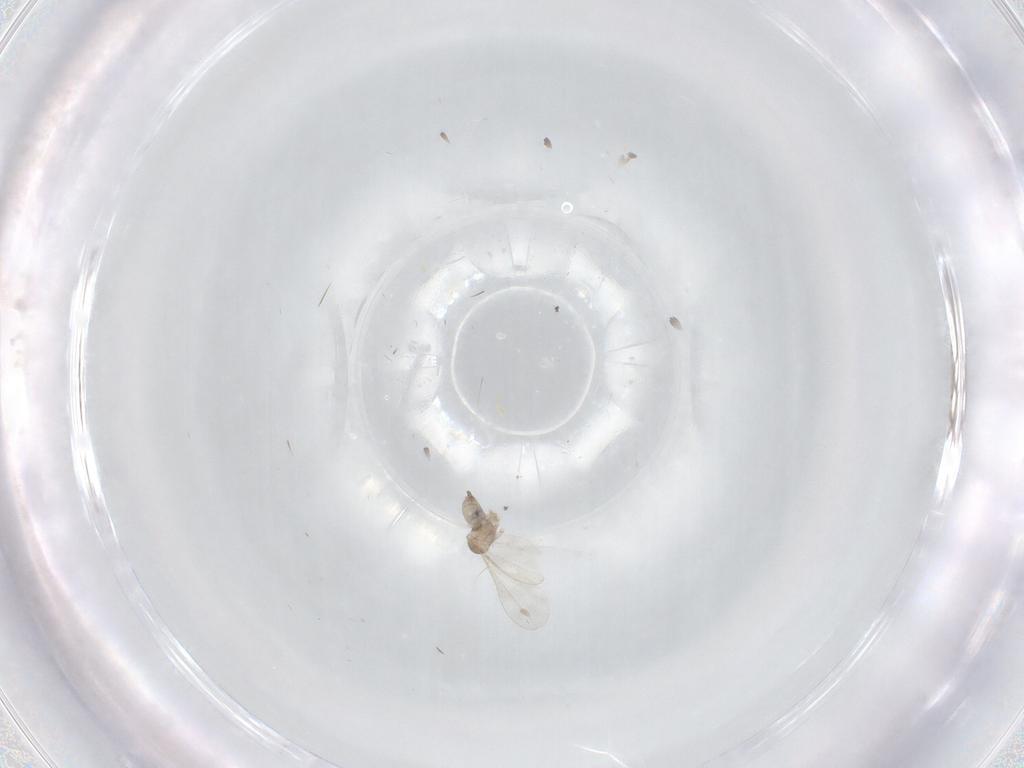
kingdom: Animalia
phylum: Arthropoda
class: Insecta
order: Diptera
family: Cecidomyiidae
